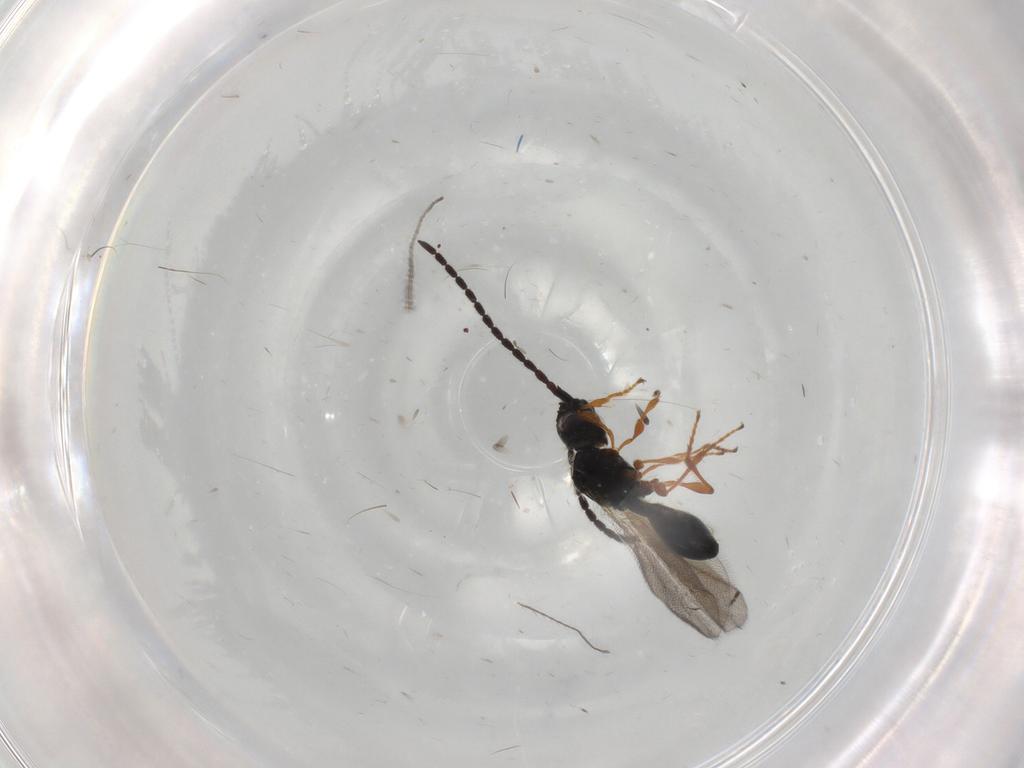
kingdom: Animalia
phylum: Arthropoda
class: Insecta
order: Hymenoptera
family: Diapriidae
